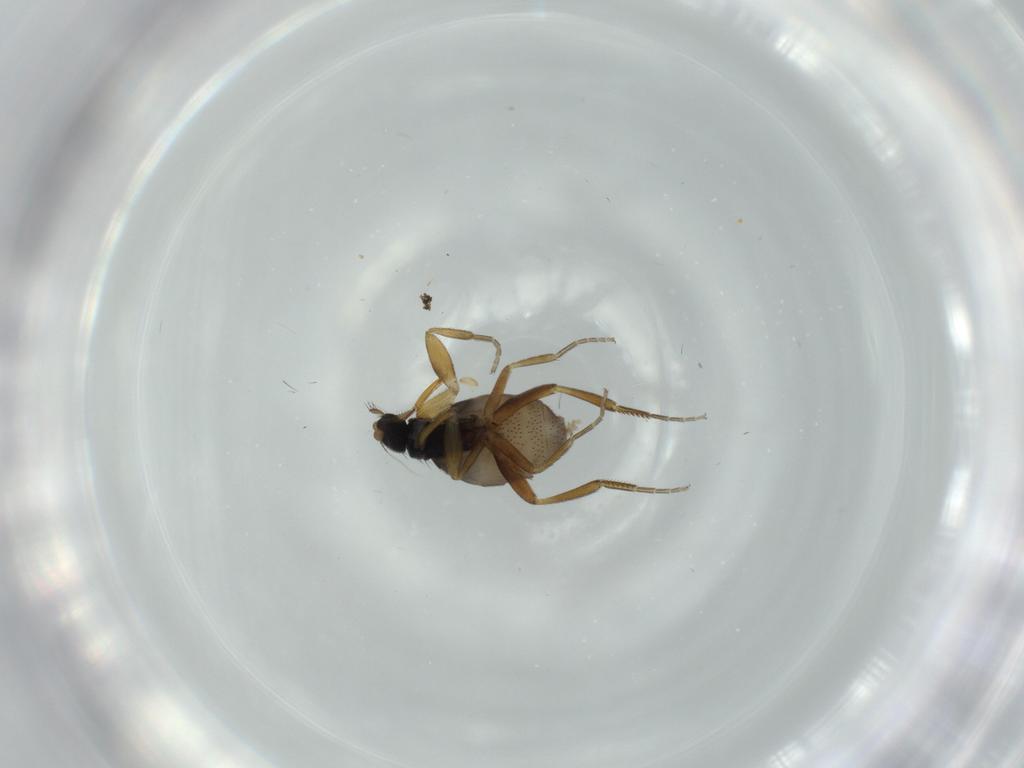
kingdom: Animalia
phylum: Arthropoda
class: Insecta
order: Diptera
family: Phoridae
